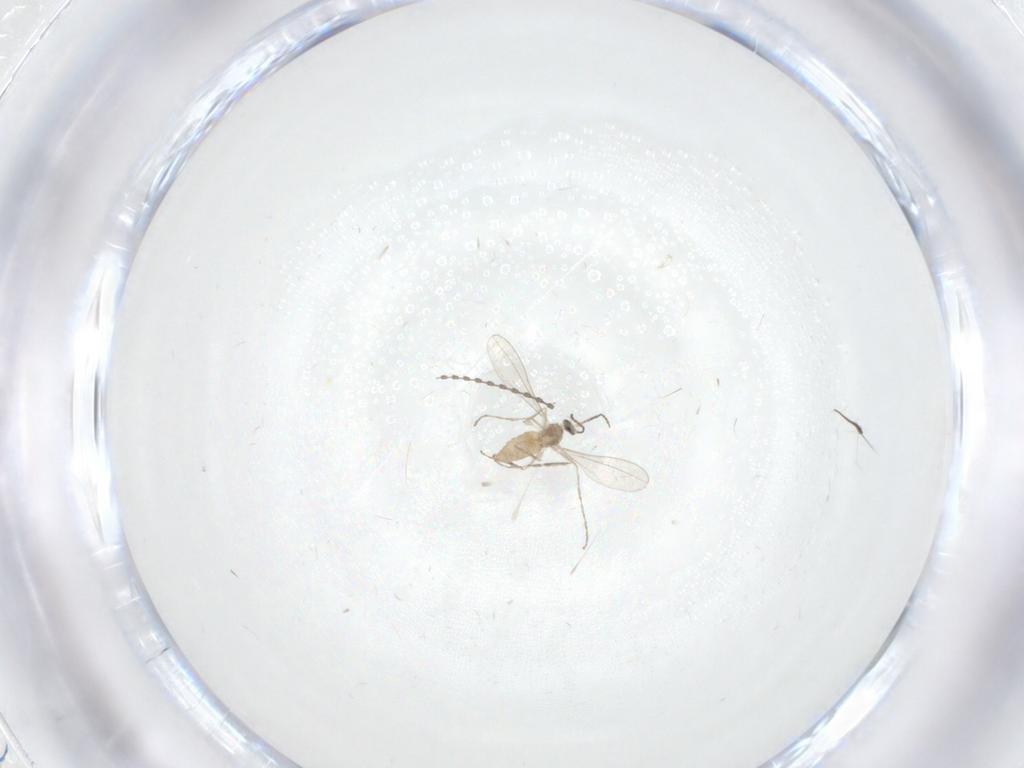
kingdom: Animalia
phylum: Arthropoda
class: Insecta
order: Diptera
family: Cecidomyiidae
